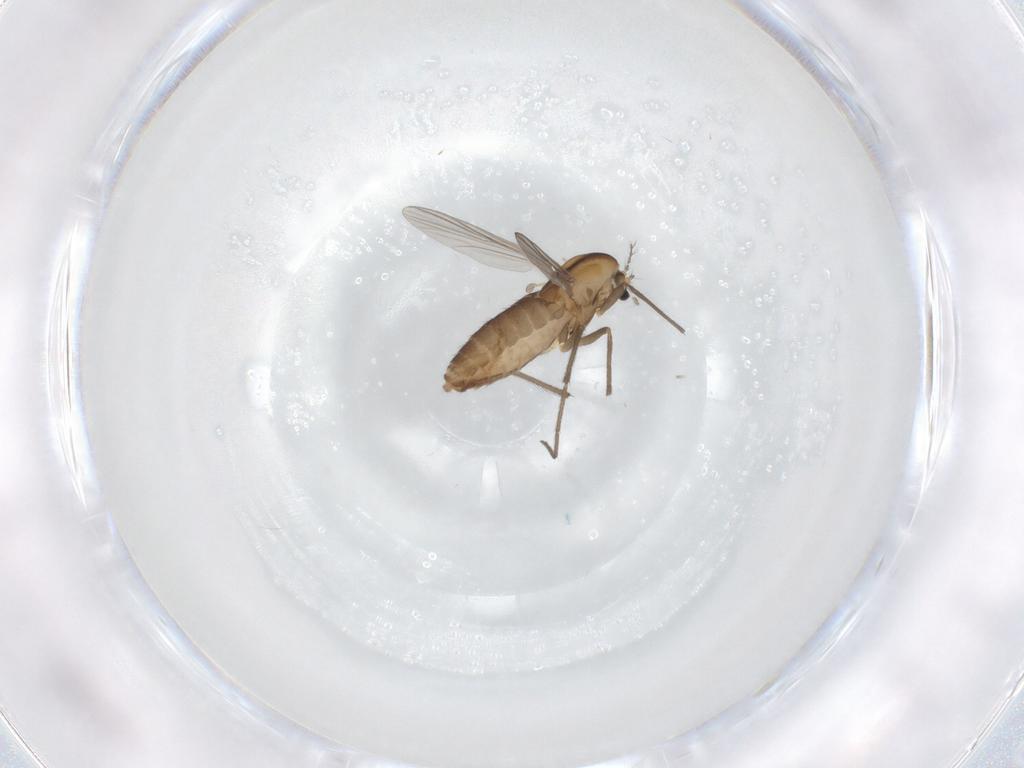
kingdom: Animalia
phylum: Arthropoda
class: Insecta
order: Diptera
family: Chironomidae
